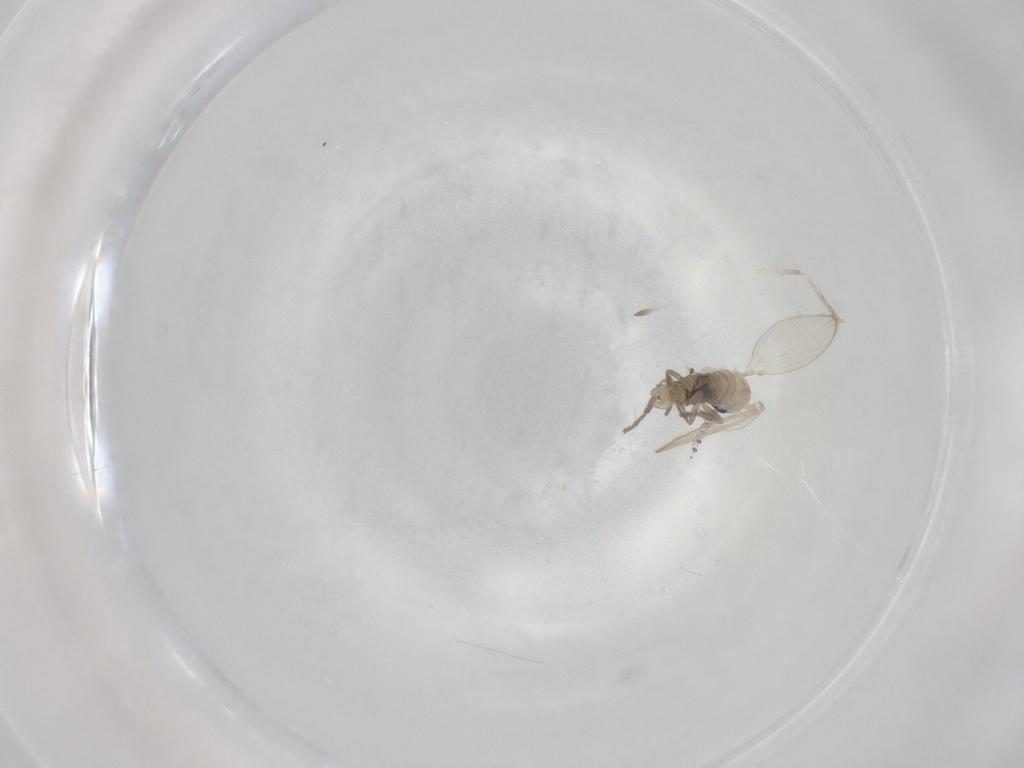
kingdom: Animalia
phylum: Arthropoda
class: Insecta
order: Diptera
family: Psychodidae
